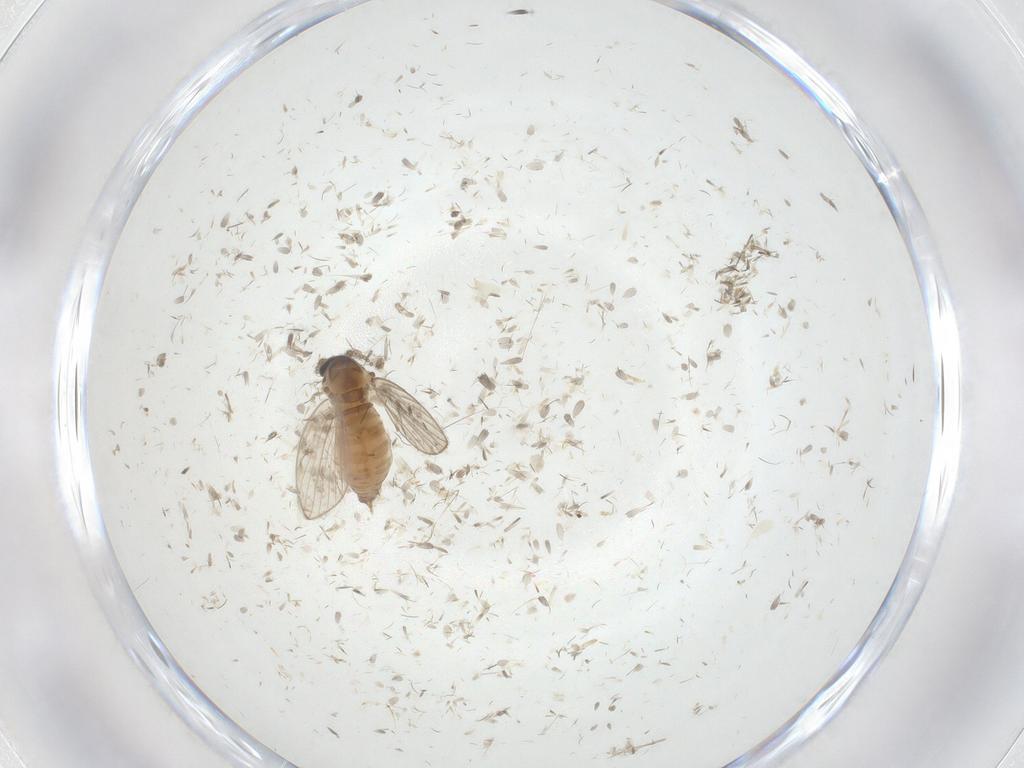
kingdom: Animalia
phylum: Arthropoda
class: Insecta
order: Diptera
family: Psychodidae
